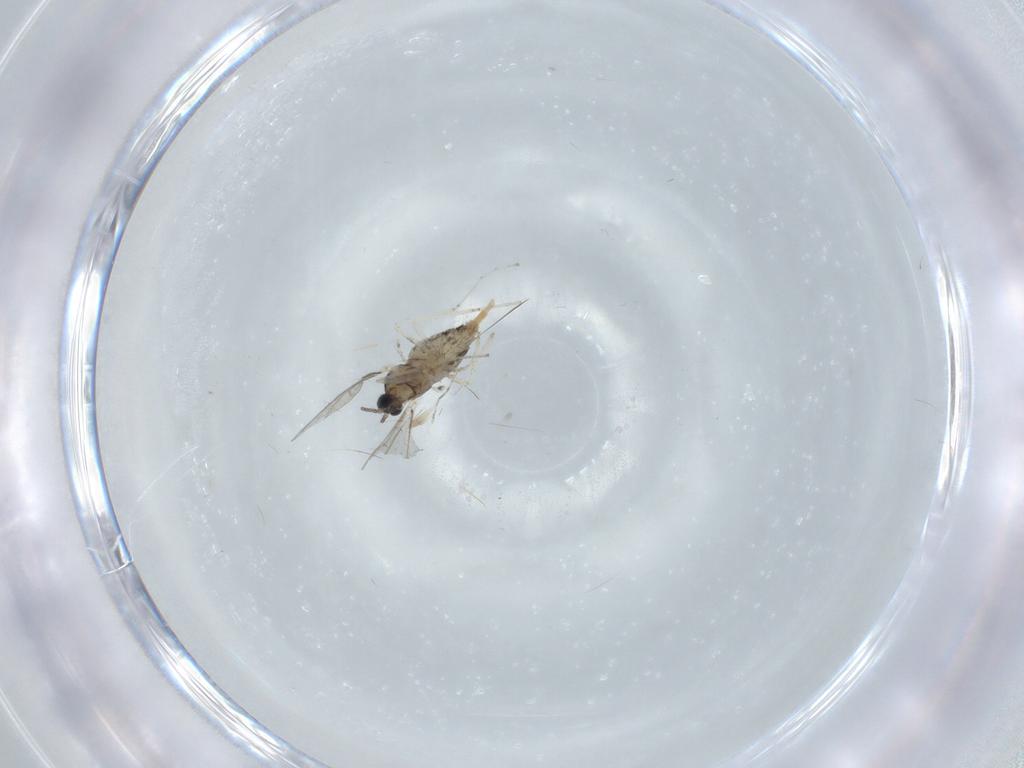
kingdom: Animalia
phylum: Arthropoda
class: Insecta
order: Diptera
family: Cecidomyiidae
